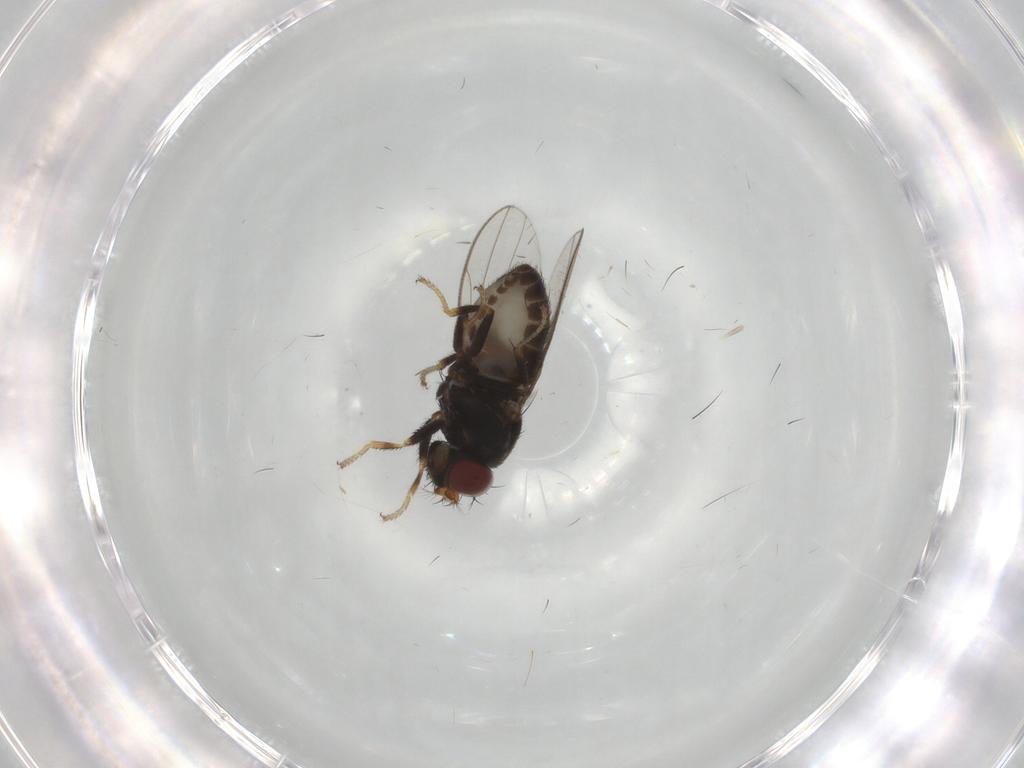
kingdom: Animalia
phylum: Arthropoda
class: Insecta
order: Diptera
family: Ephydridae
